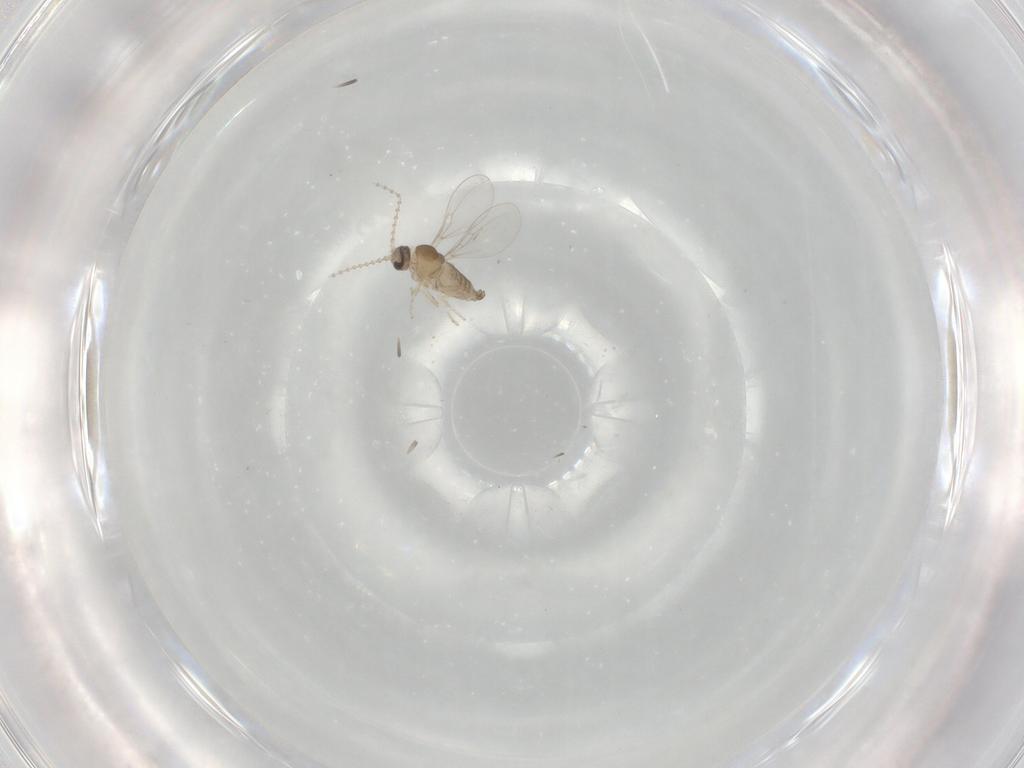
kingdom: Animalia
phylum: Arthropoda
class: Insecta
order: Diptera
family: Cecidomyiidae
